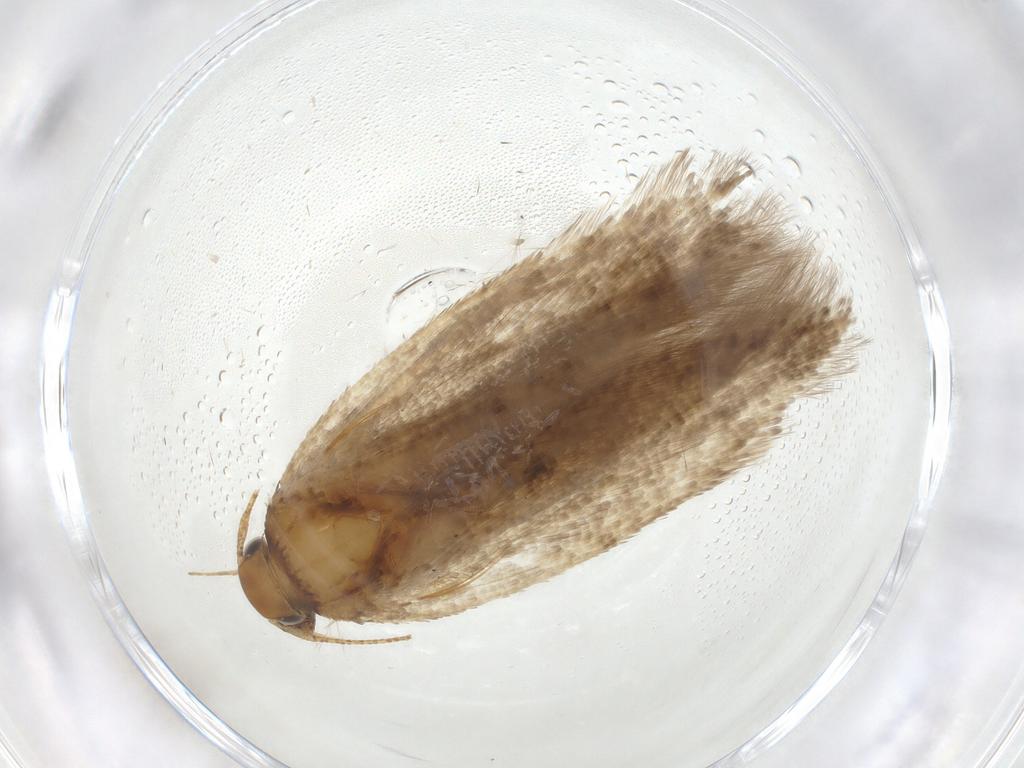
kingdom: Animalia
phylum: Arthropoda
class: Insecta
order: Lepidoptera
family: Gelechiidae
